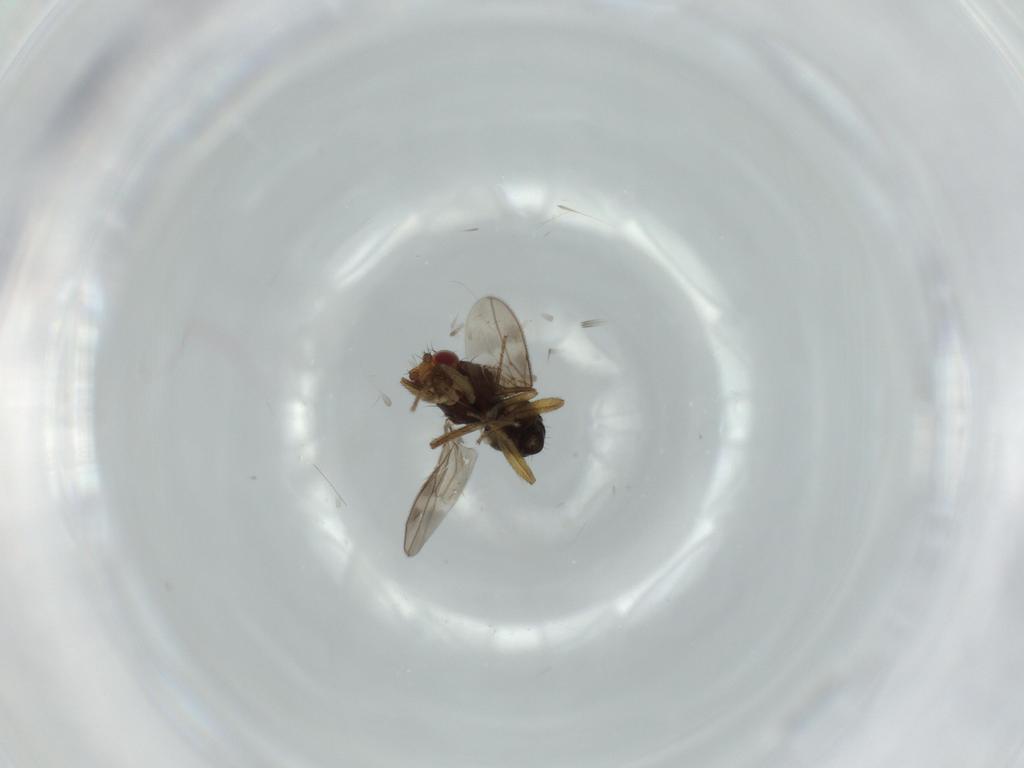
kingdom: Animalia
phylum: Arthropoda
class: Insecta
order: Diptera
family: Sphaeroceridae
